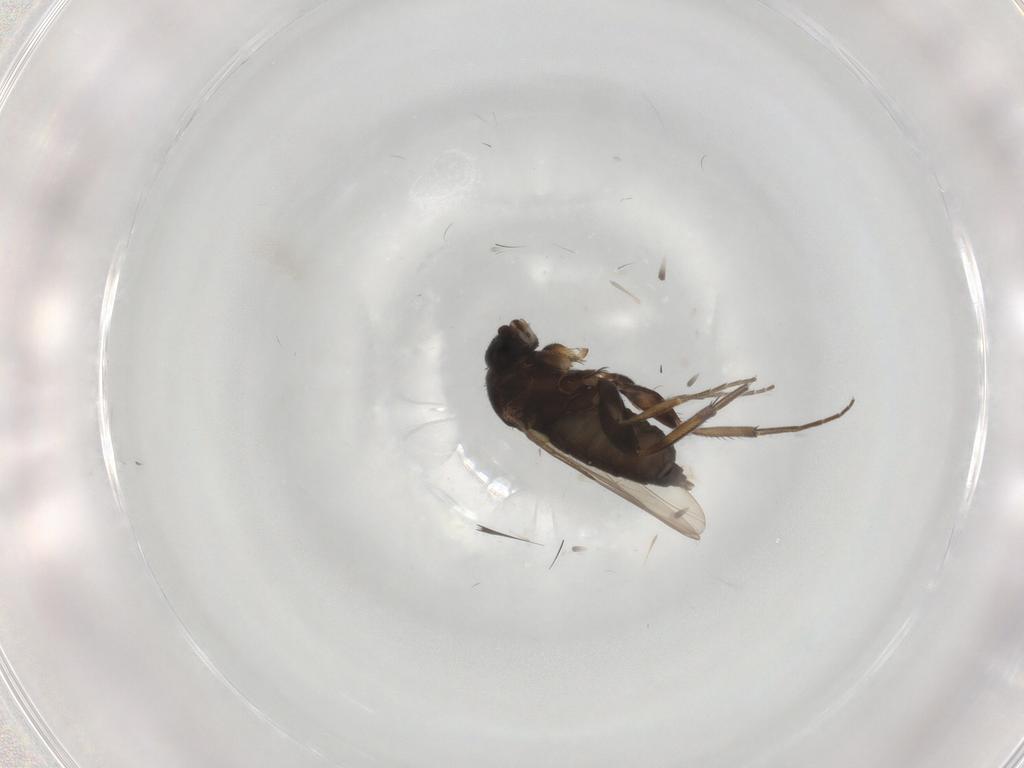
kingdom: Animalia
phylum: Arthropoda
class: Insecta
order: Diptera
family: Phoridae
